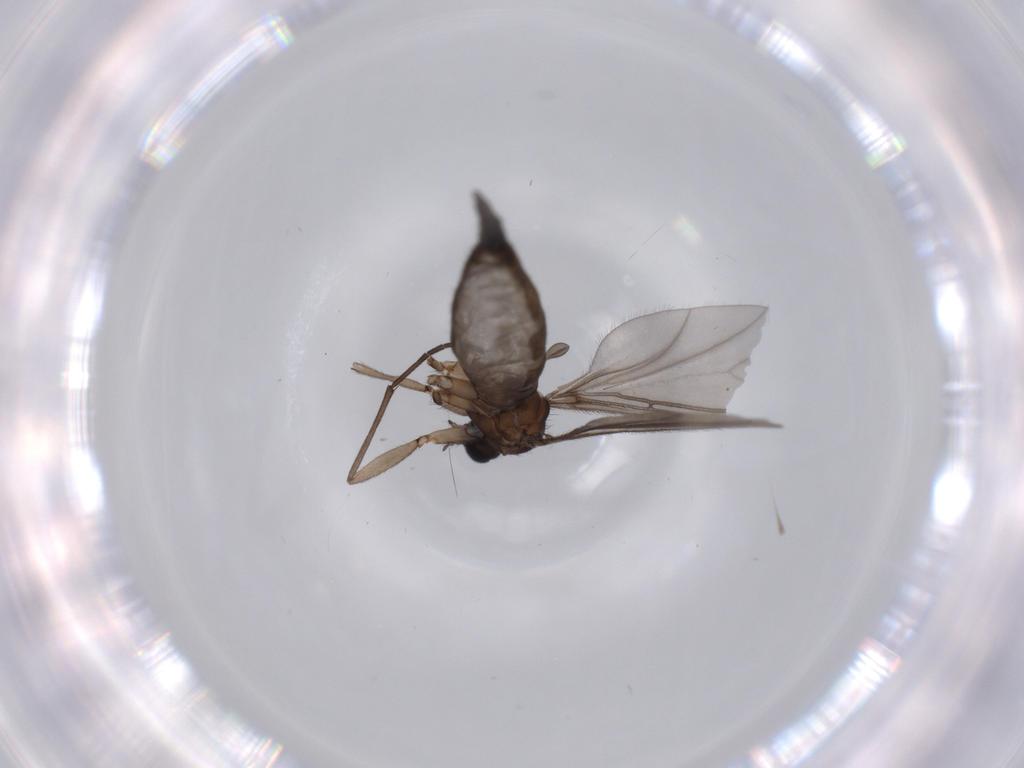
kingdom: Animalia
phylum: Arthropoda
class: Insecta
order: Diptera
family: Sciaridae
